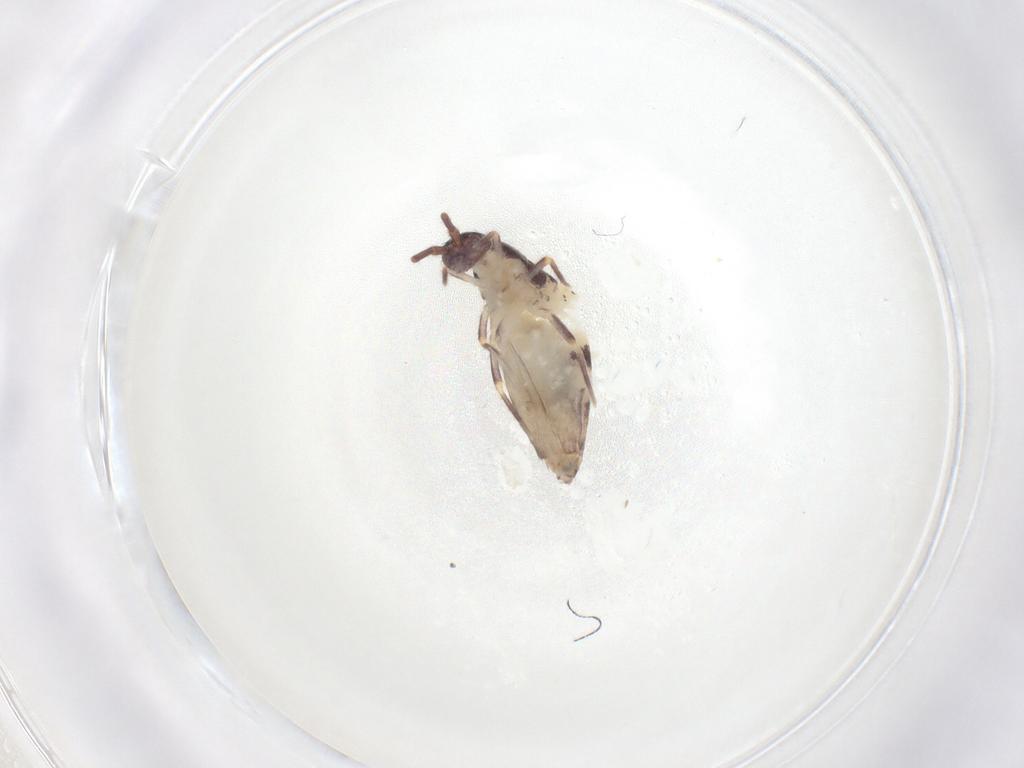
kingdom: Animalia
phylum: Arthropoda
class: Collembola
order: Entomobryomorpha
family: Entomobryidae
